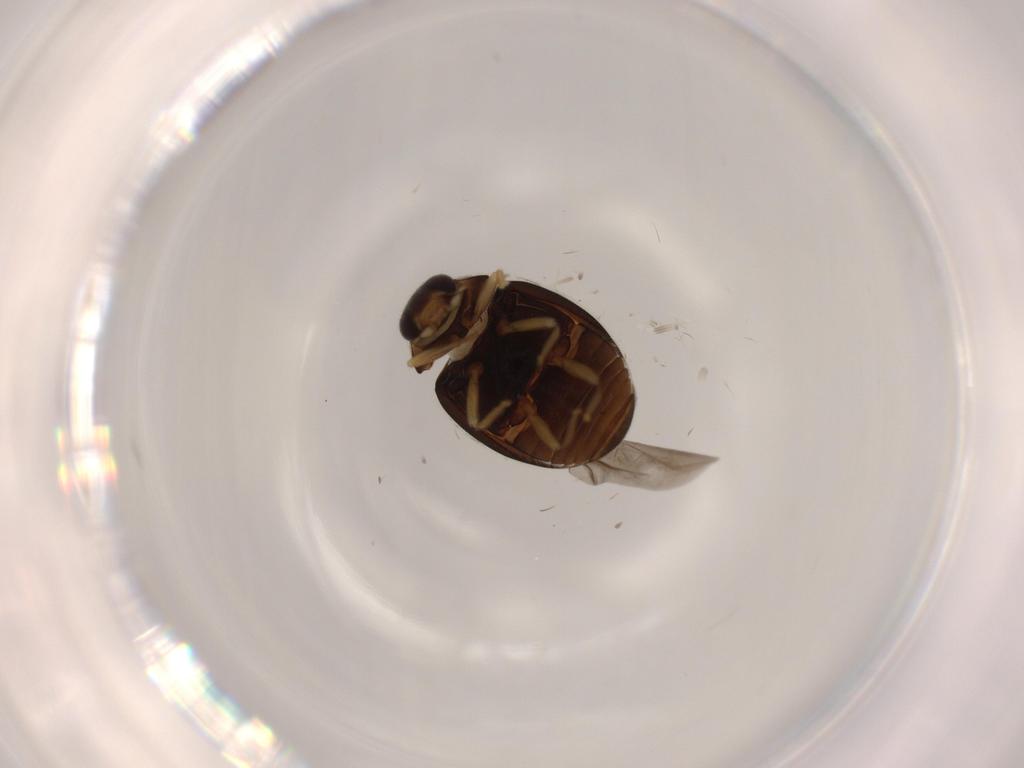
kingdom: Animalia
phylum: Arthropoda
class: Insecta
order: Coleoptera
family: Coccinellidae
